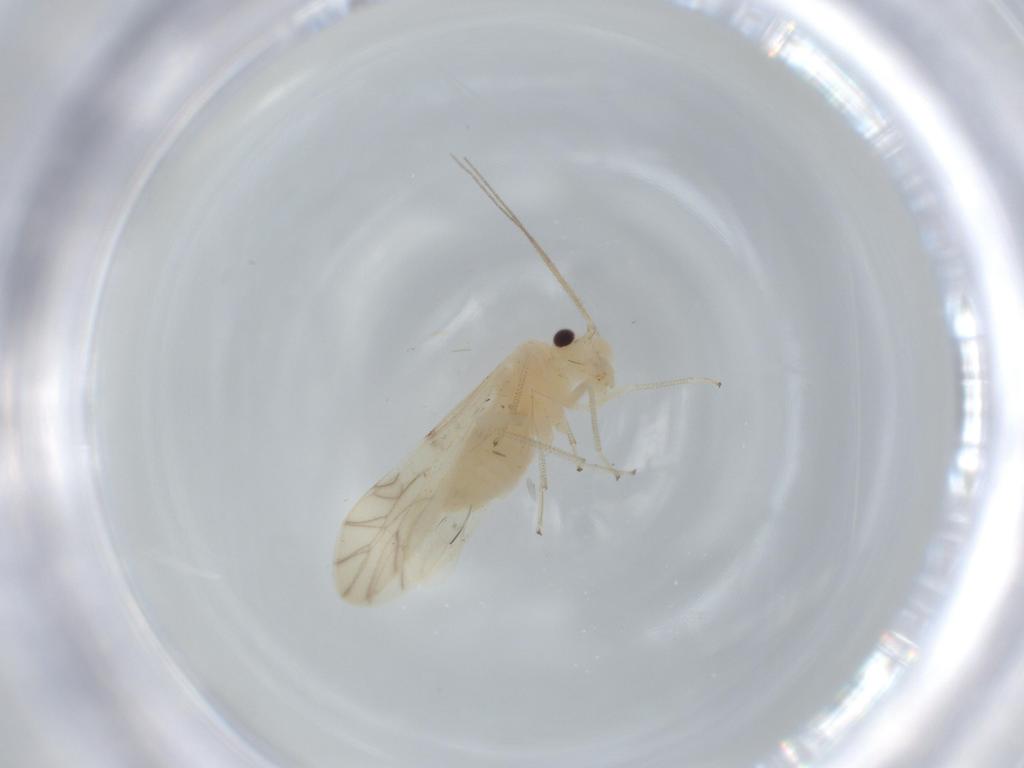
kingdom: Animalia
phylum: Arthropoda
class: Insecta
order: Psocodea
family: Caeciliusidae
